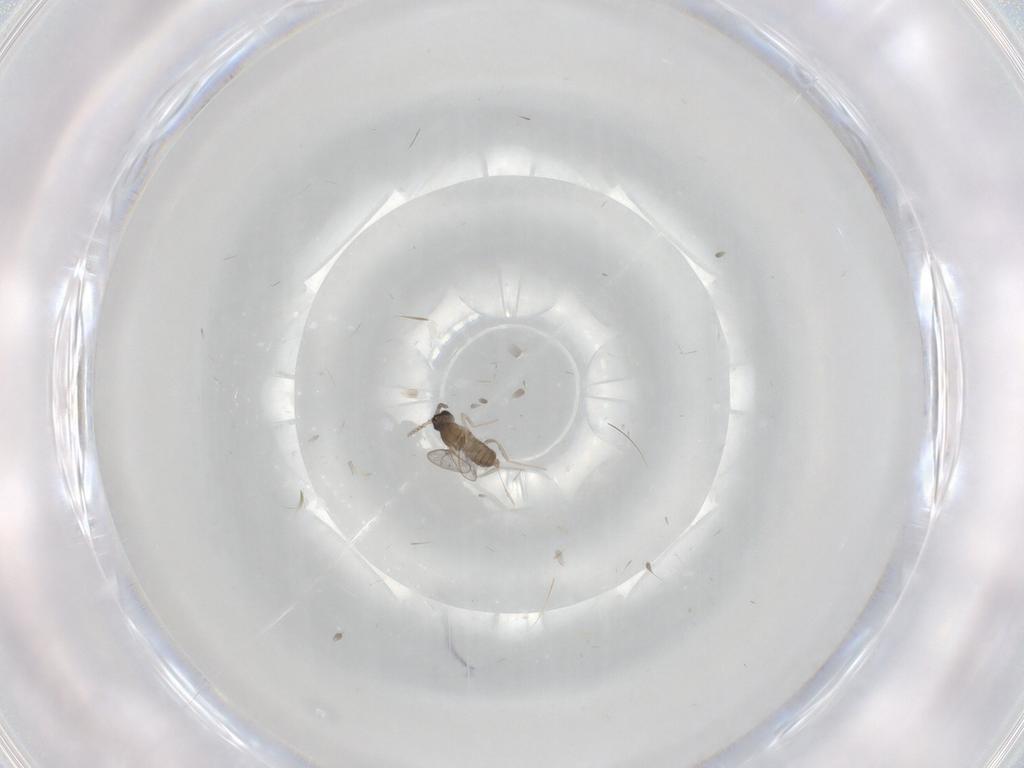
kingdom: Animalia
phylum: Arthropoda
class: Insecta
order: Diptera
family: Cecidomyiidae
